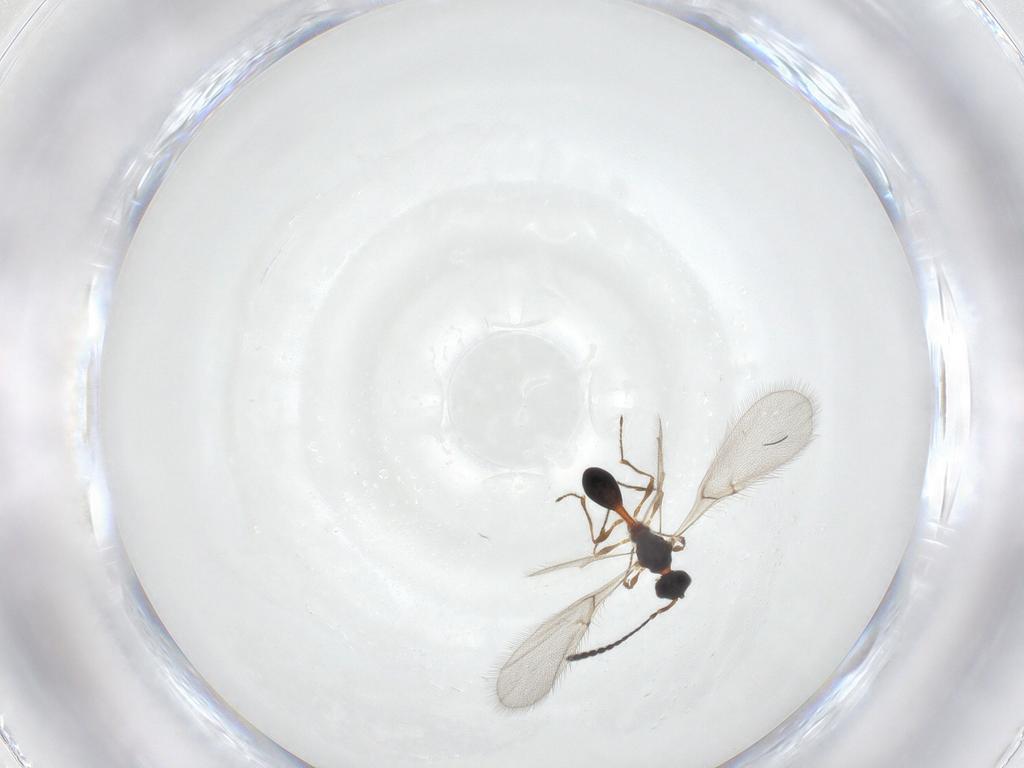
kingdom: Animalia
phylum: Arthropoda
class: Insecta
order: Hymenoptera
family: Diapriidae
